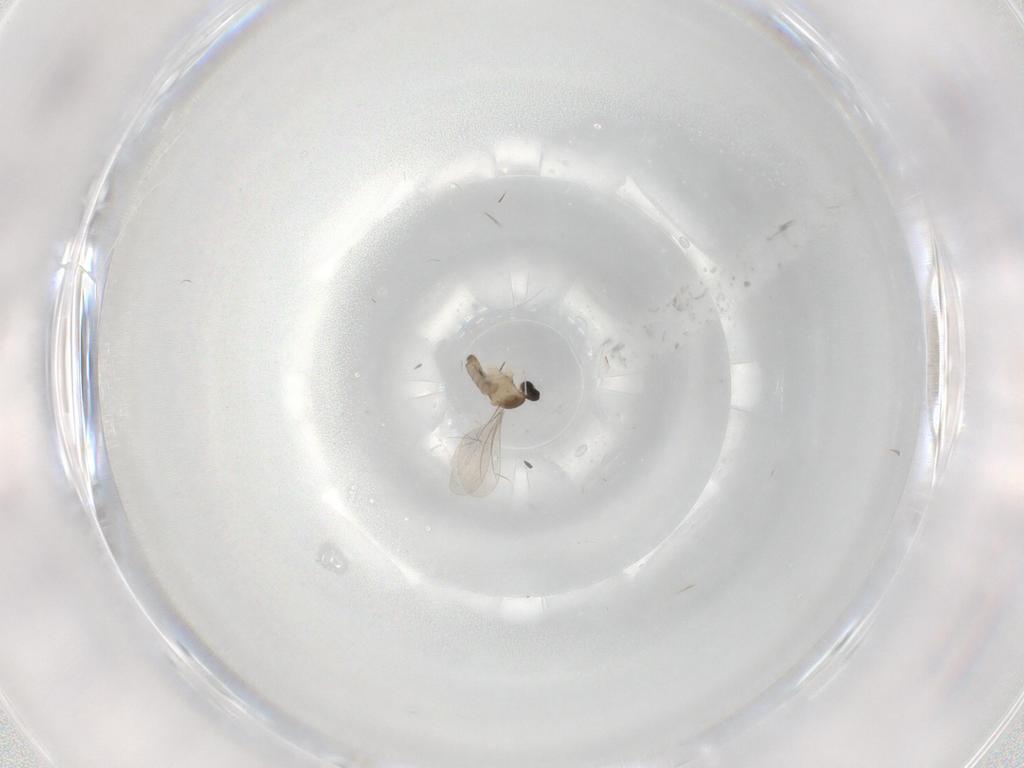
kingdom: Animalia
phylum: Arthropoda
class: Insecta
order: Diptera
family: Cecidomyiidae
